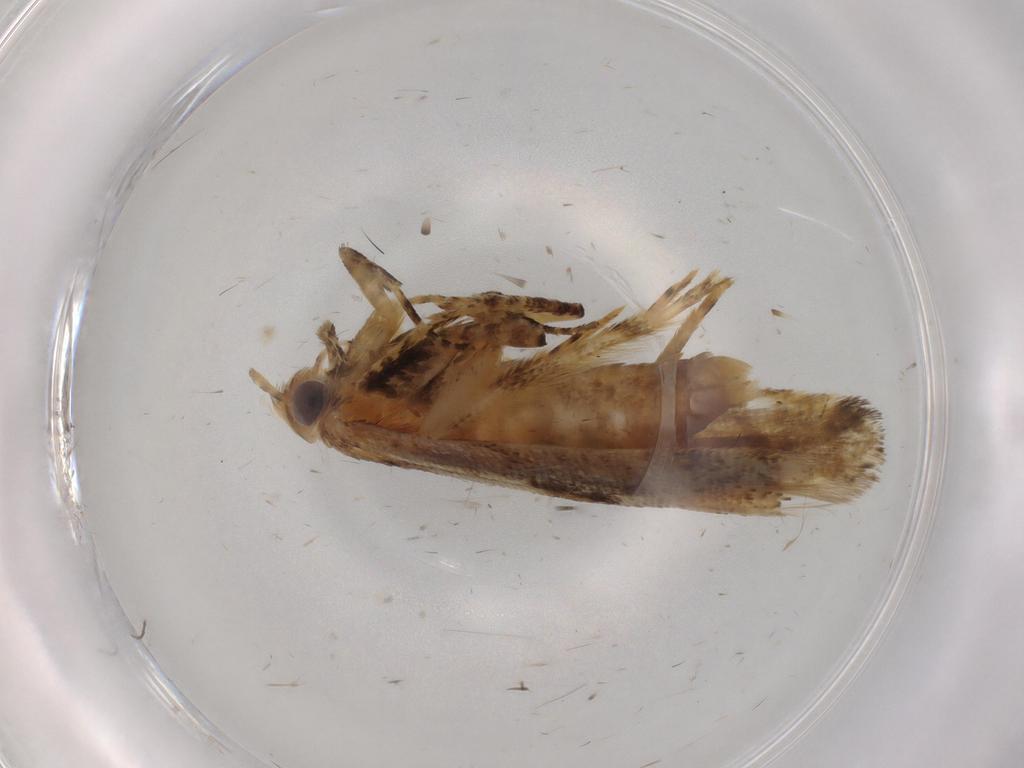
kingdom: Animalia
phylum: Arthropoda
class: Insecta
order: Lepidoptera
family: Gelechiidae
